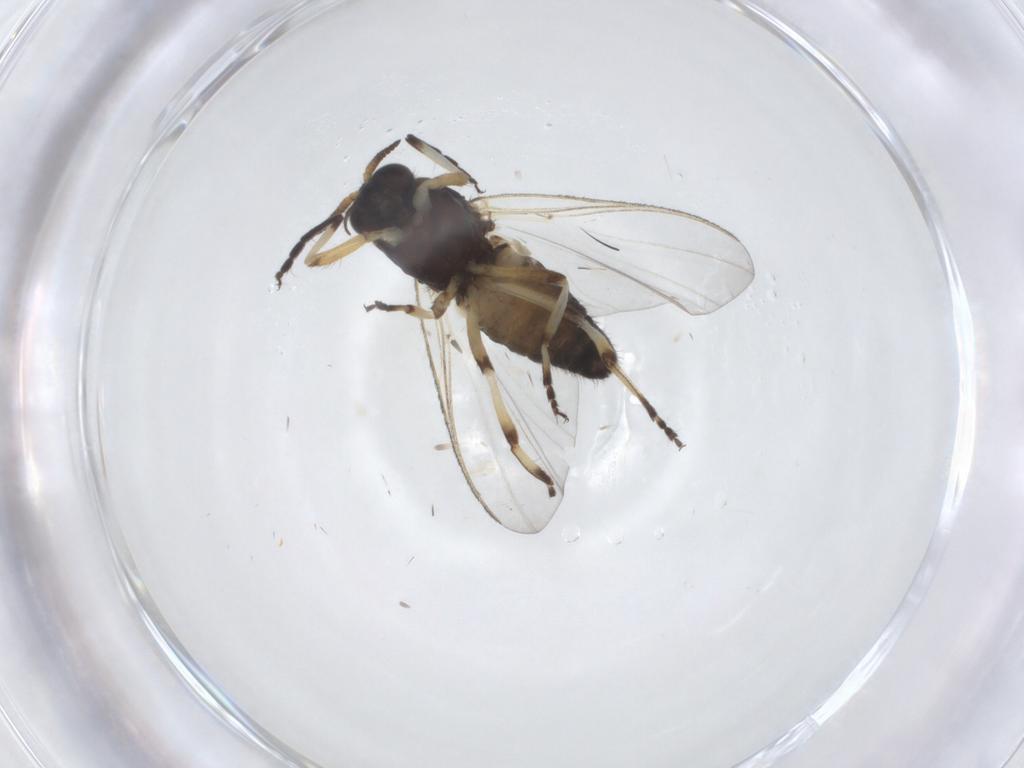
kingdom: Animalia
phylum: Arthropoda
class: Insecta
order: Diptera
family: Simuliidae
